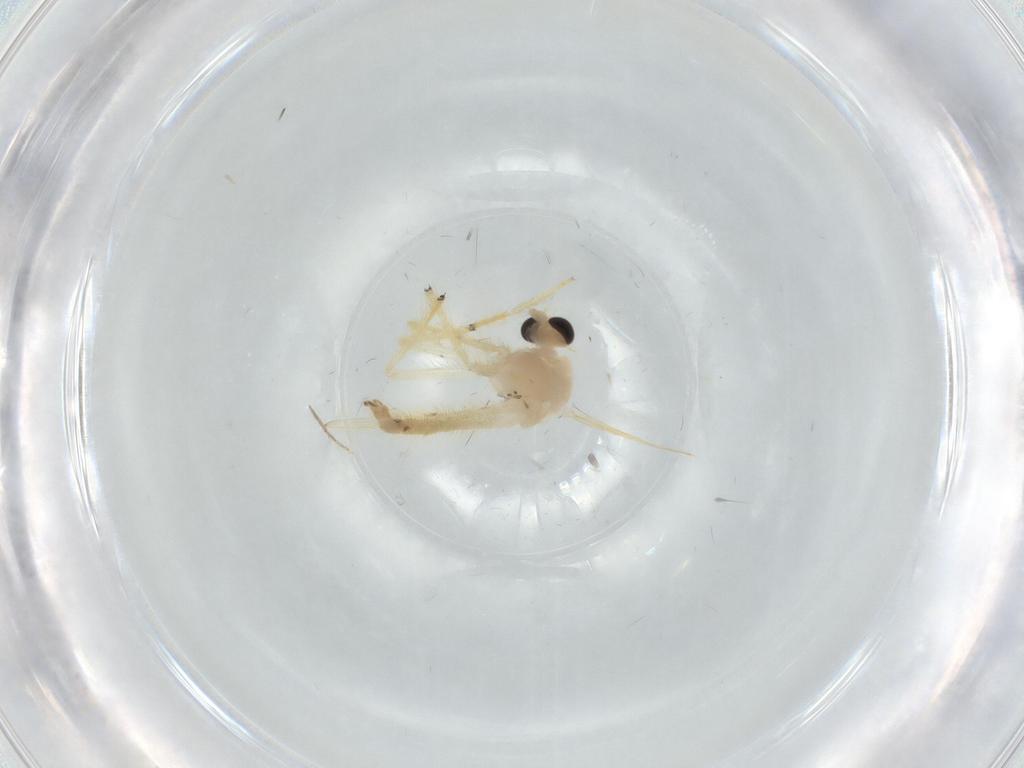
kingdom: Animalia
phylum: Arthropoda
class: Insecta
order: Diptera
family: Chironomidae
